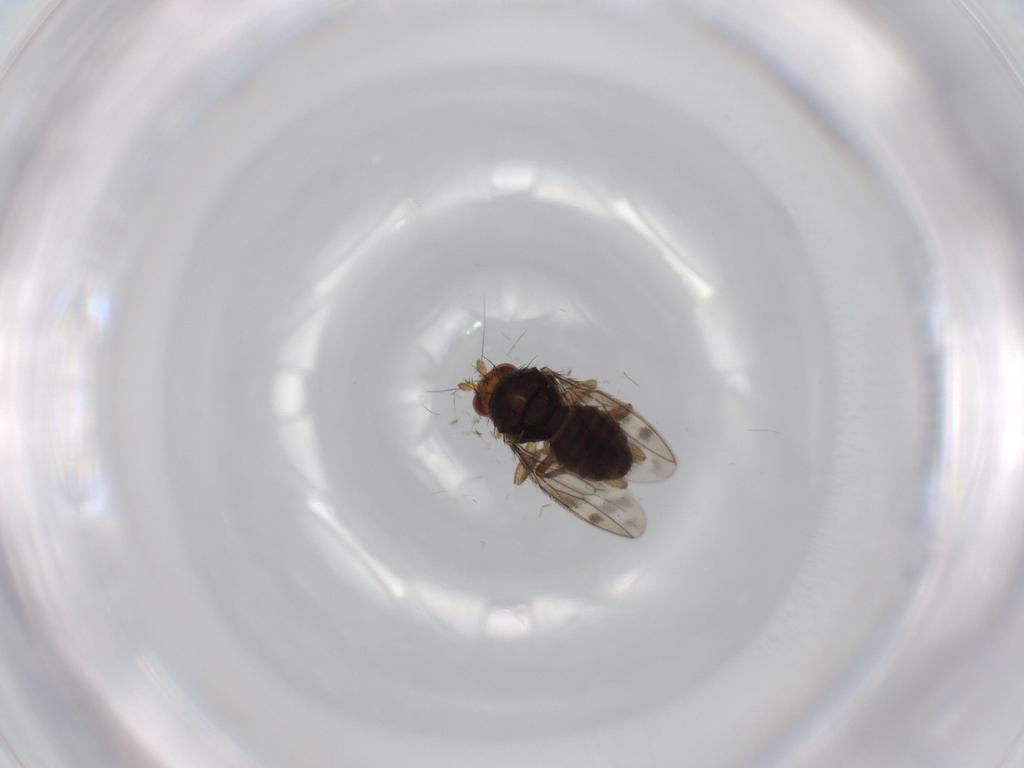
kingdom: Animalia
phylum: Arthropoda
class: Insecta
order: Diptera
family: Sphaeroceridae
